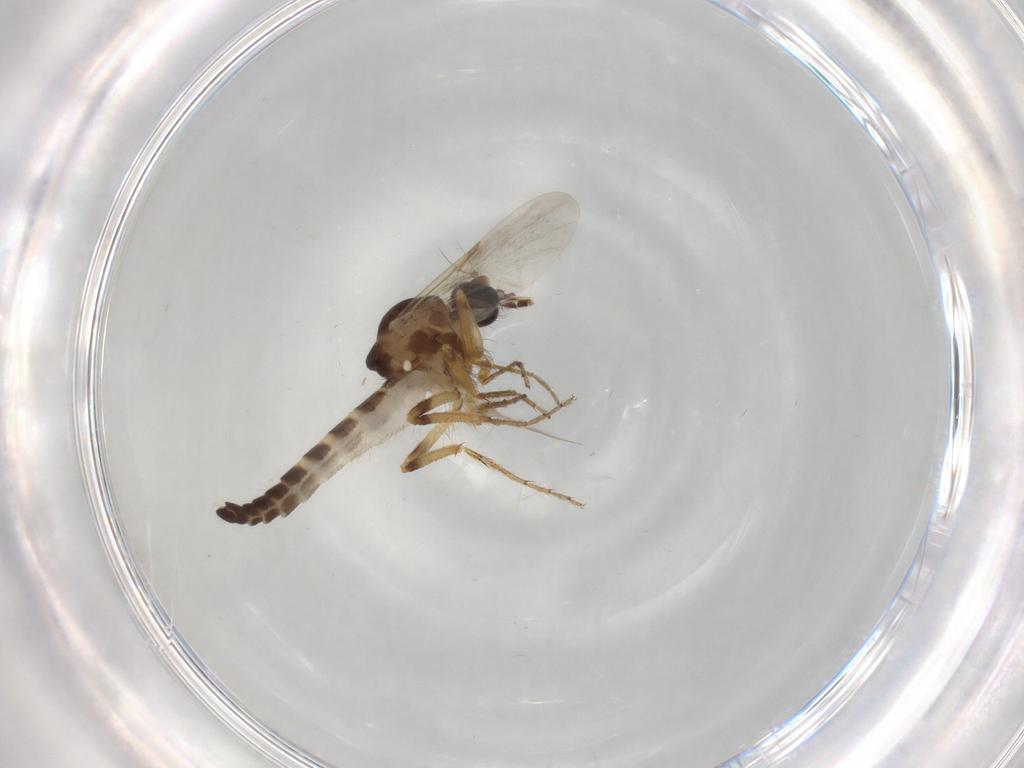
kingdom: Animalia
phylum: Arthropoda
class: Insecta
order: Diptera
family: Ceratopogonidae
